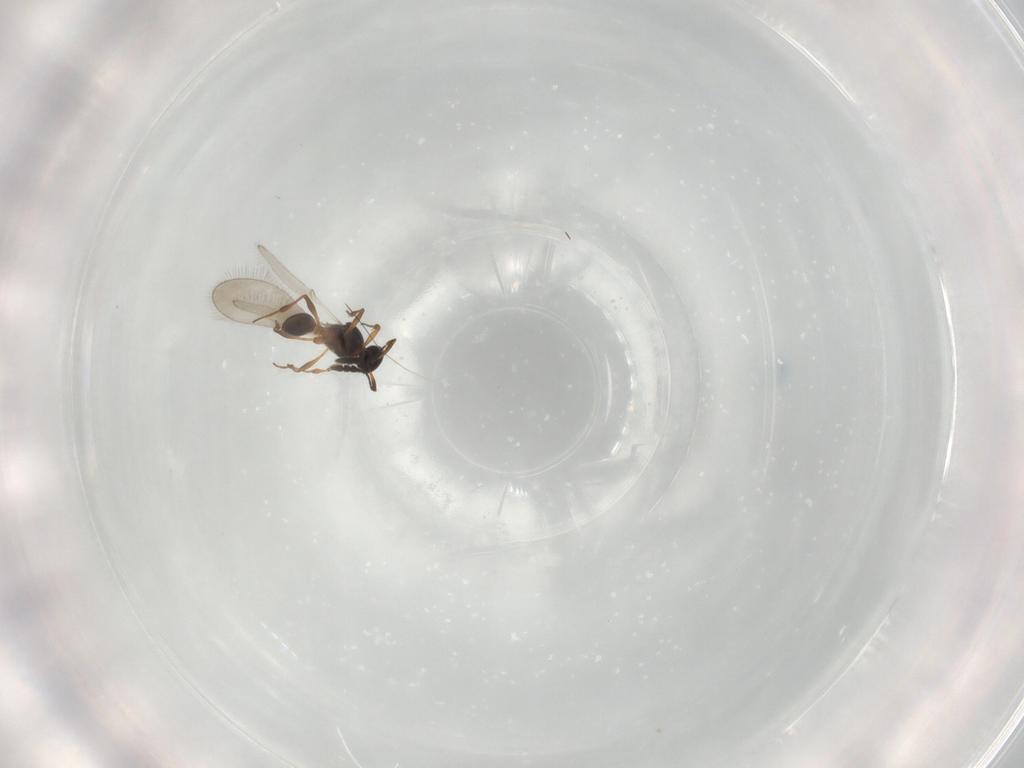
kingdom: Animalia
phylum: Arthropoda
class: Insecta
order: Hymenoptera
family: Platygastridae
